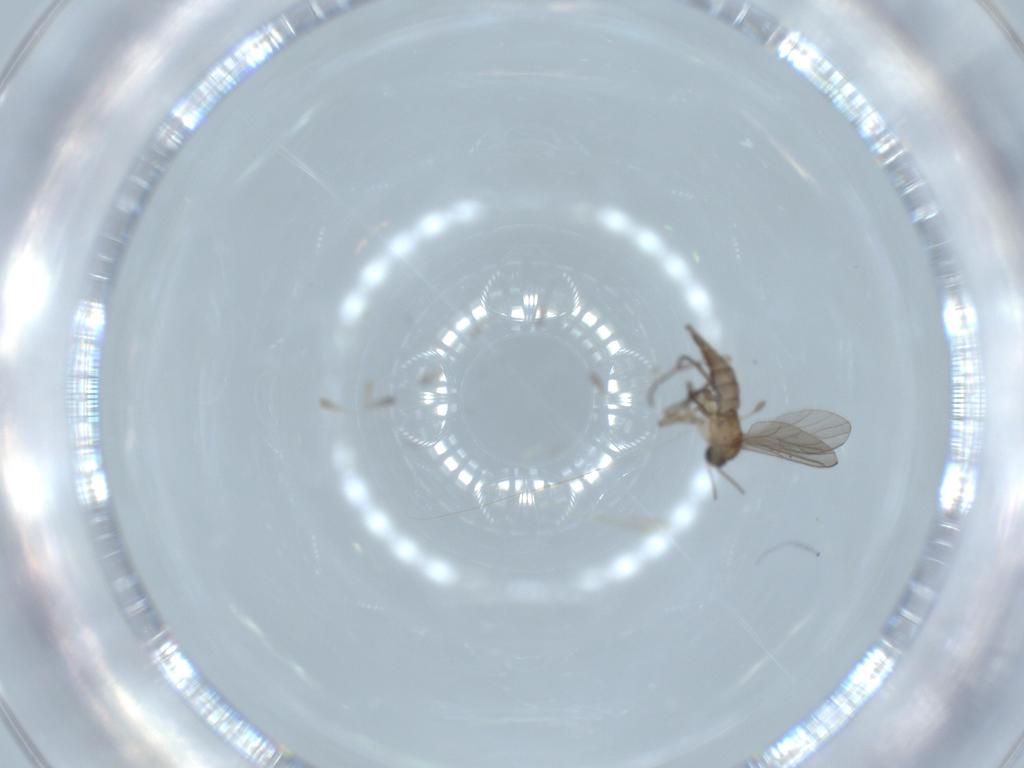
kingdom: Animalia
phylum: Arthropoda
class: Insecta
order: Diptera
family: Sciaridae
